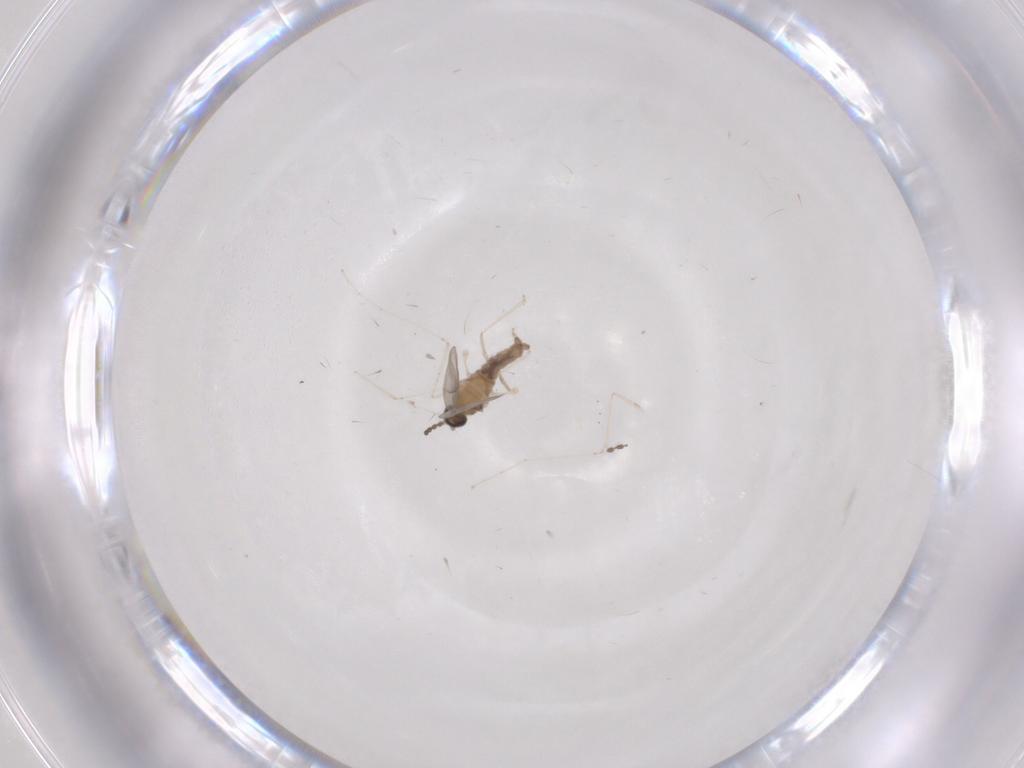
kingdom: Animalia
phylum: Arthropoda
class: Insecta
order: Diptera
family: Cecidomyiidae
